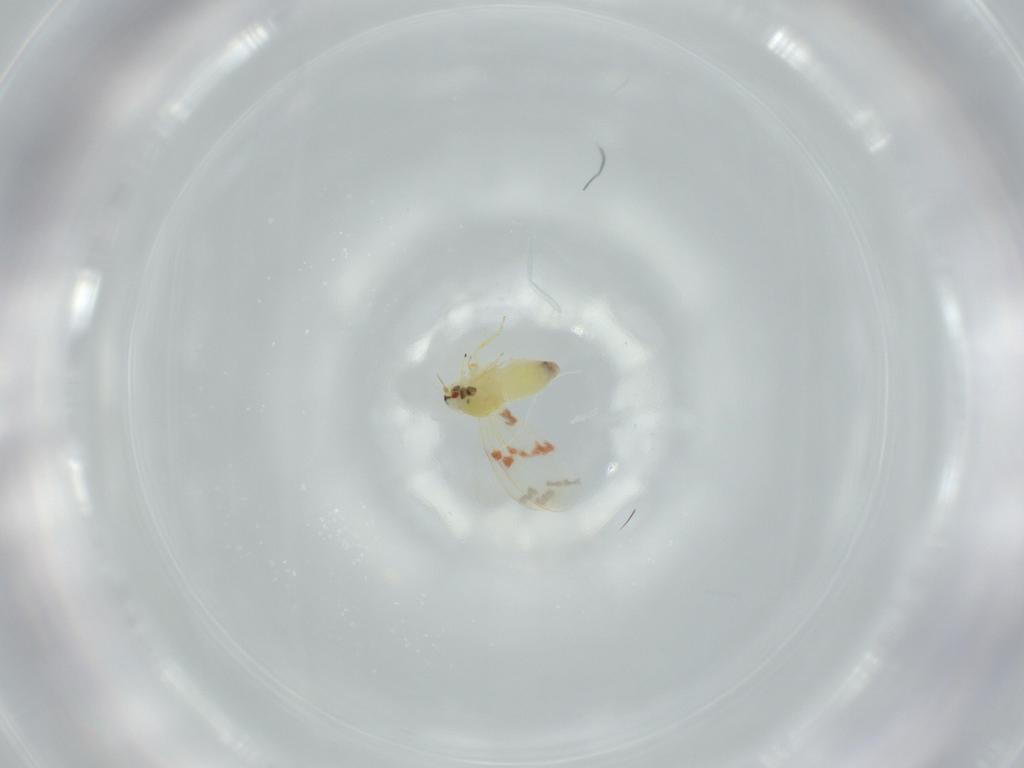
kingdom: Animalia
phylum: Arthropoda
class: Insecta
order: Hemiptera
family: Aleyrodidae
